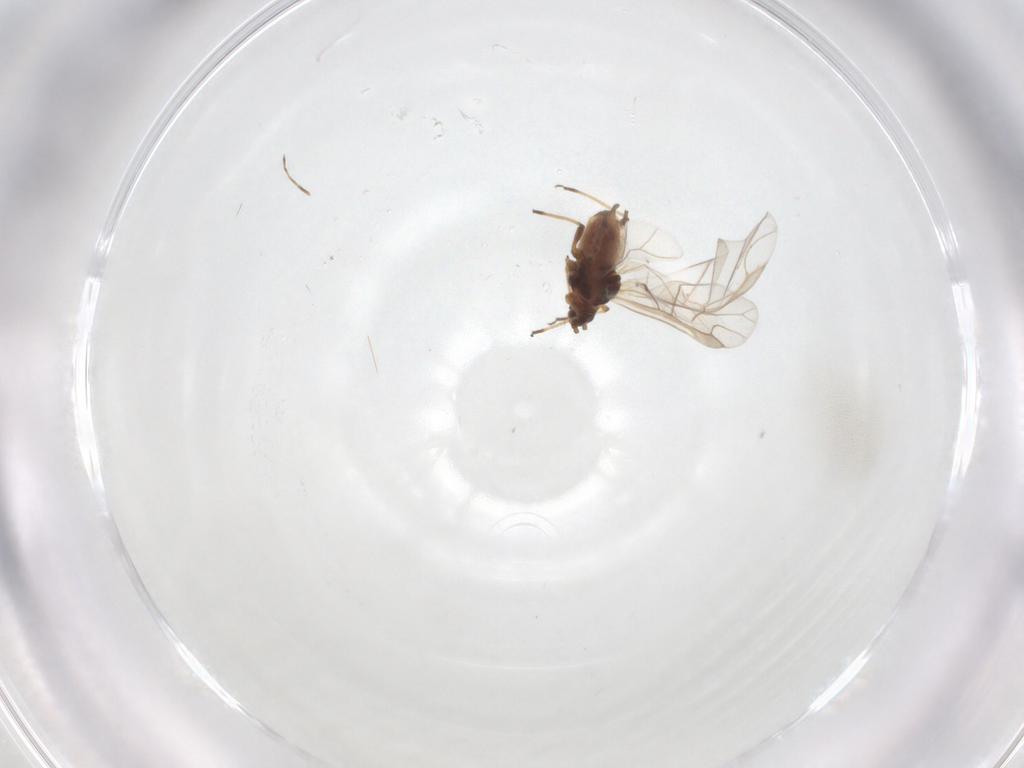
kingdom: Animalia
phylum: Arthropoda
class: Insecta
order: Hemiptera
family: Aphididae
